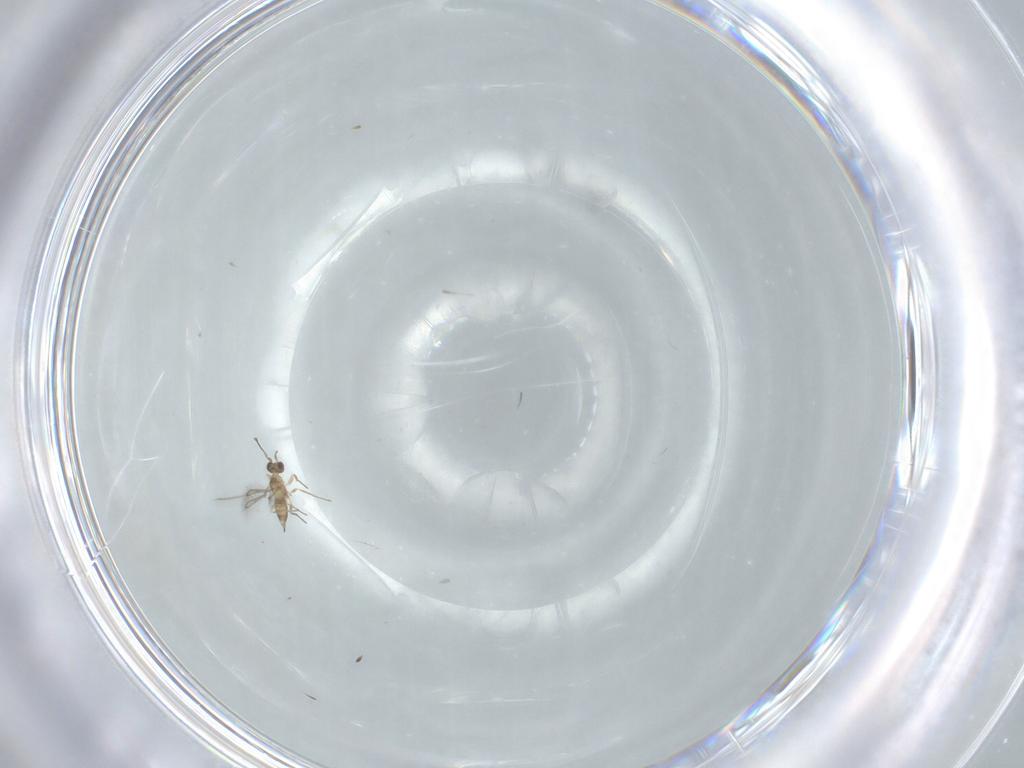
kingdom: Animalia
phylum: Arthropoda
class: Insecta
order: Hymenoptera
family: Mymaridae
